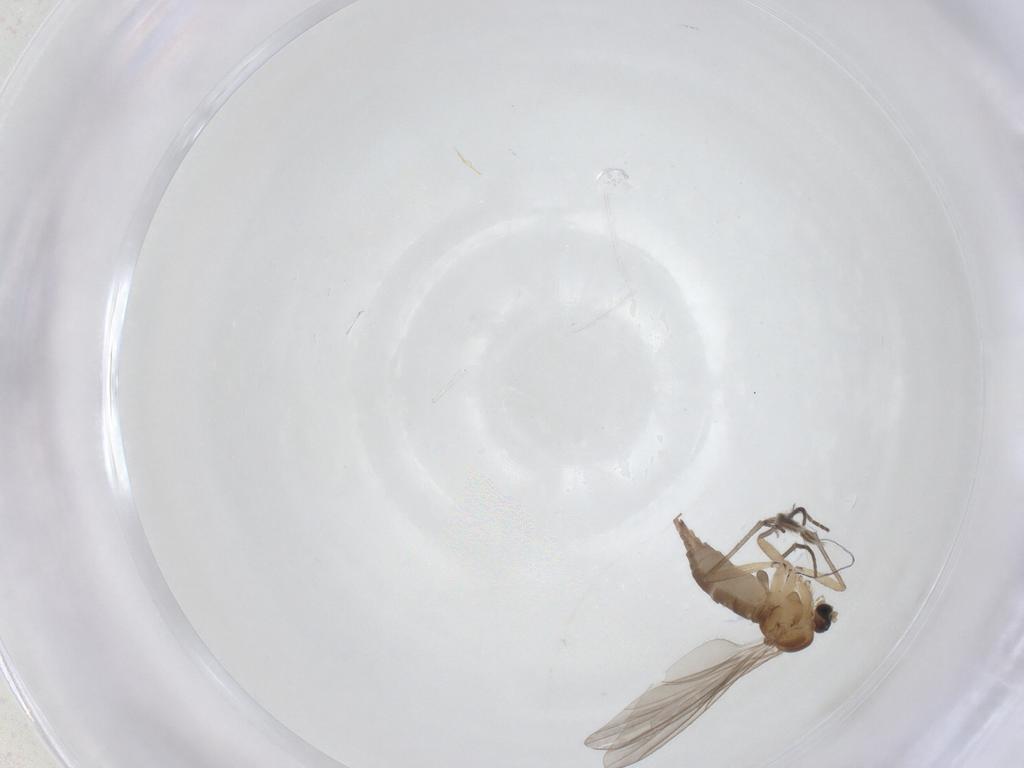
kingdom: Animalia
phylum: Arthropoda
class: Insecta
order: Diptera
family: Sciaridae
